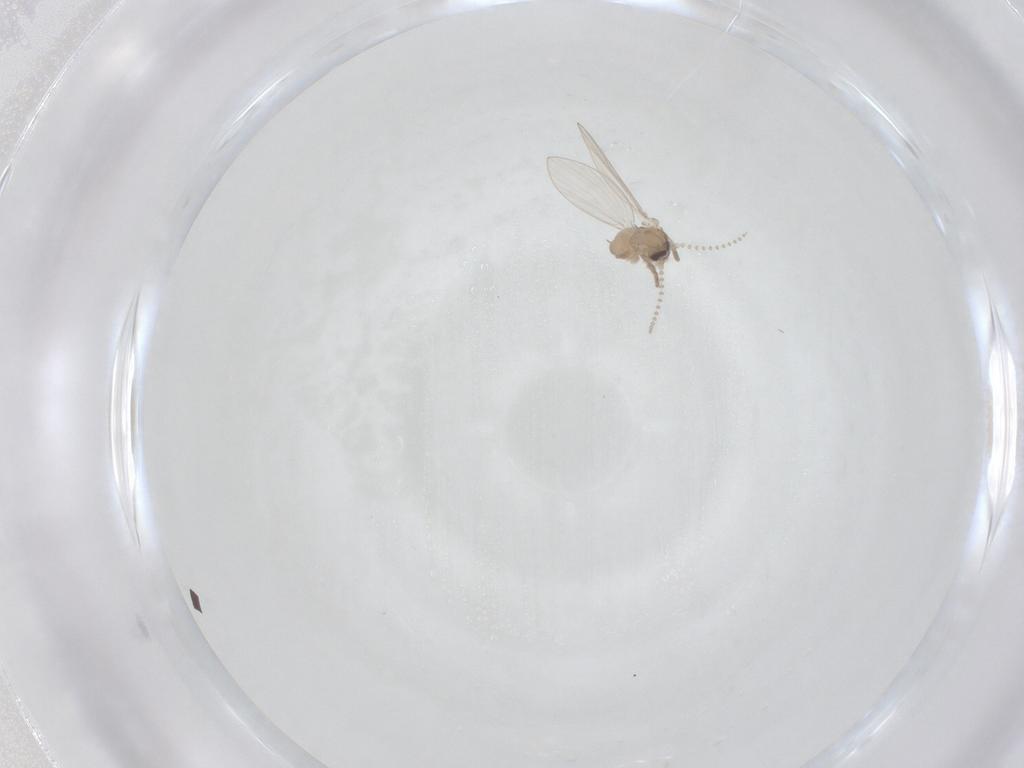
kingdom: Animalia
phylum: Arthropoda
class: Insecta
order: Diptera
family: Psychodidae
